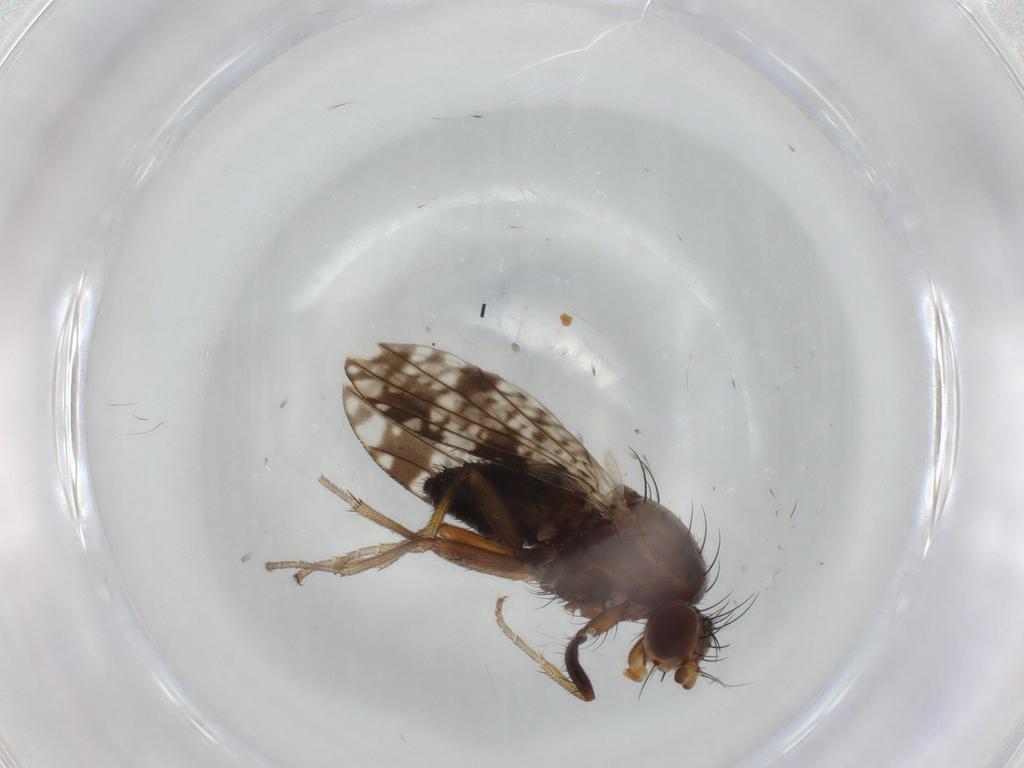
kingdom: Animalia
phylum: Arthropoda
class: Insecta
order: Diptera
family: Tephritidae
